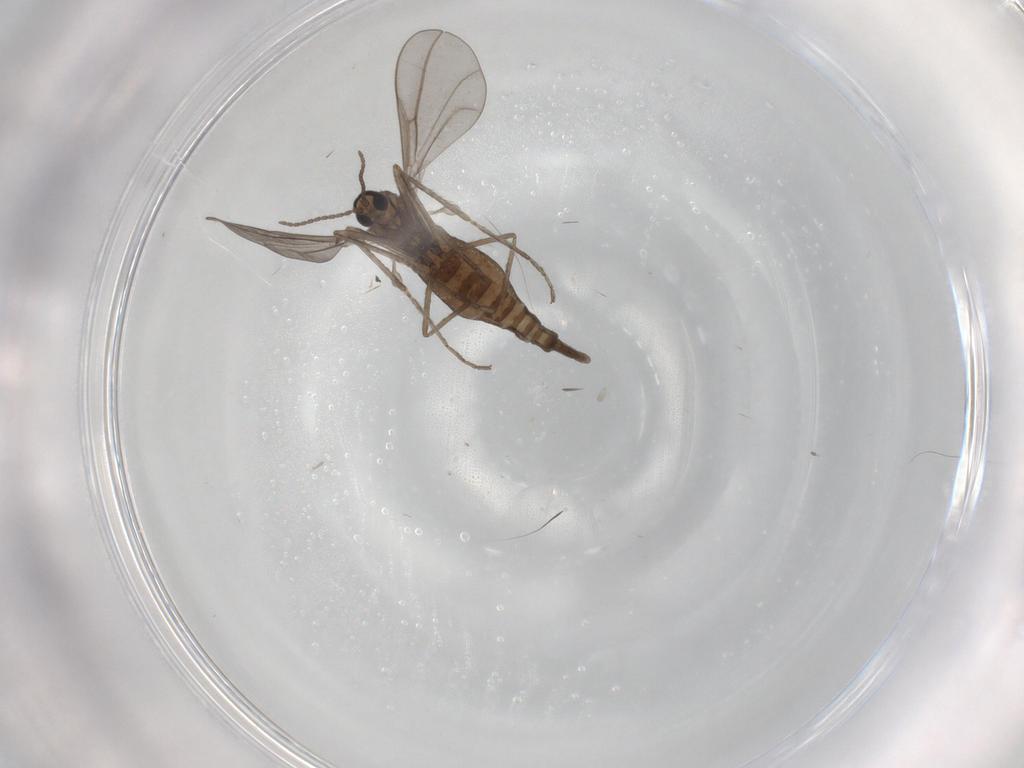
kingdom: Animalia
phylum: Arthropoda
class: Insecta
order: Diptera
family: Cecidomyiidae
